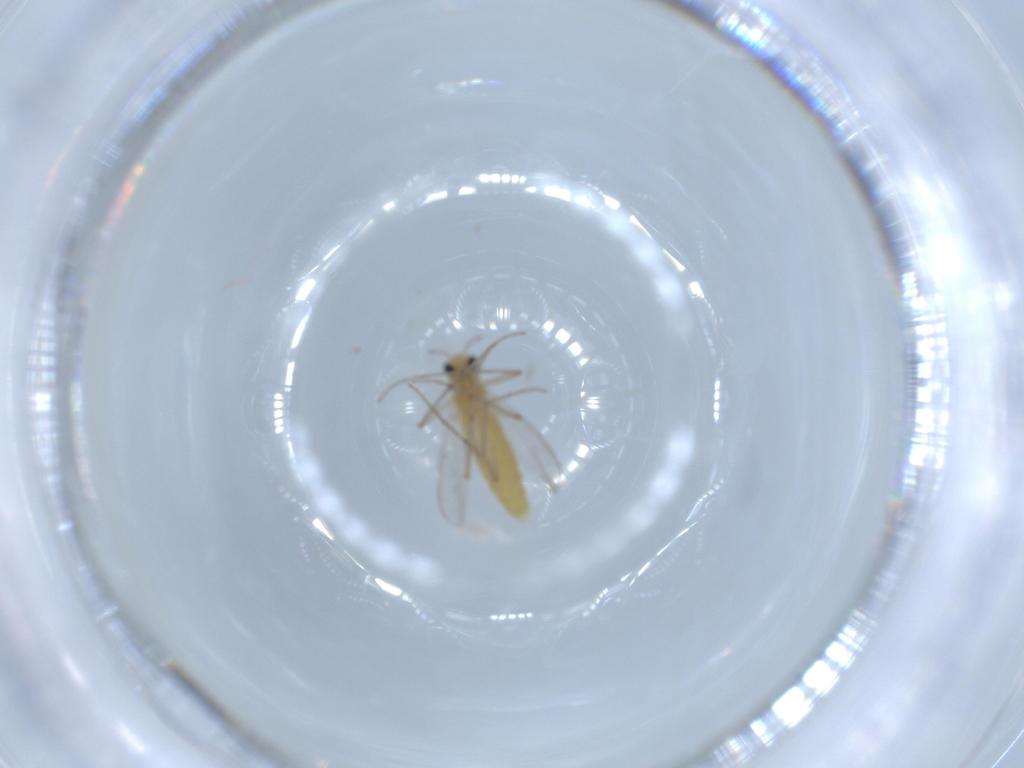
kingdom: Animalia
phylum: Arthropoda
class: Insecta
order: Diptera
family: Chironomidae
